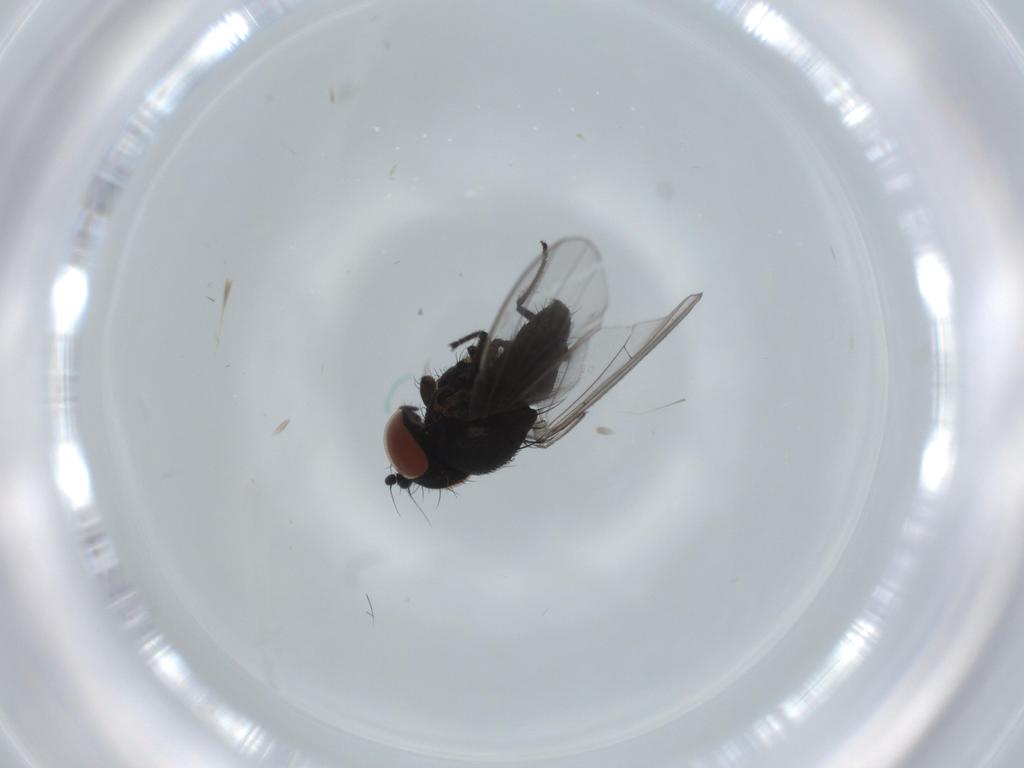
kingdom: Animalia
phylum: Arthropoda
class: Insecta
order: Diptera
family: Milichiidae
